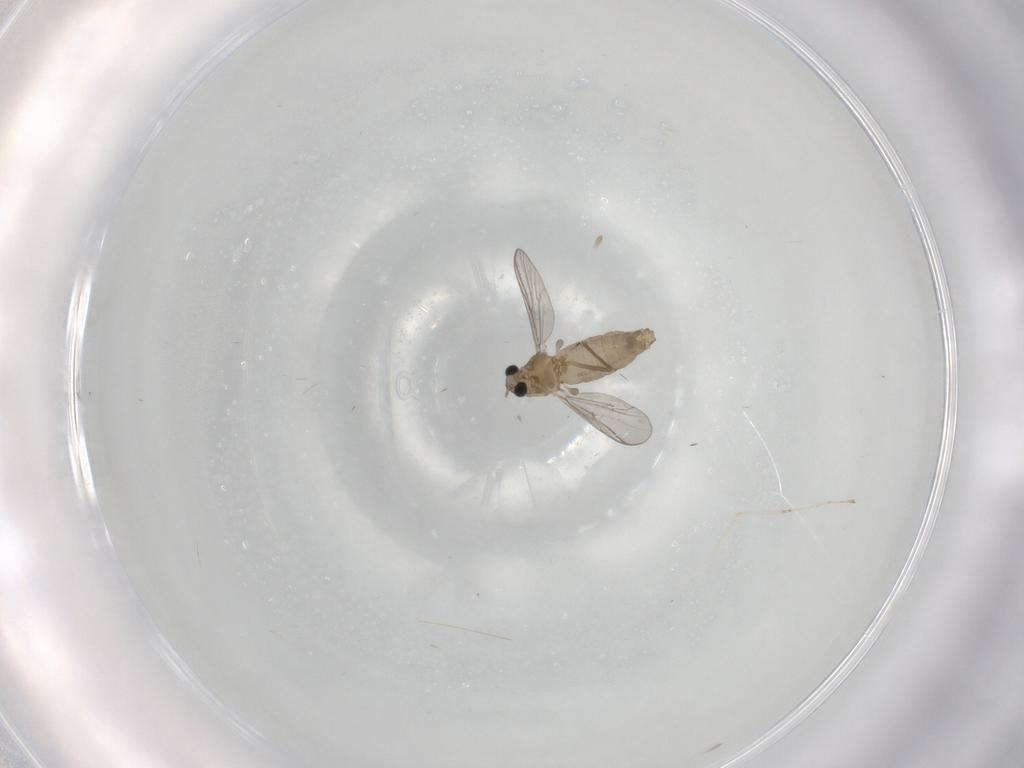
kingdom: Animalia
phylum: Arthropoda
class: Insecta
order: Diptera
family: Chironomidae
